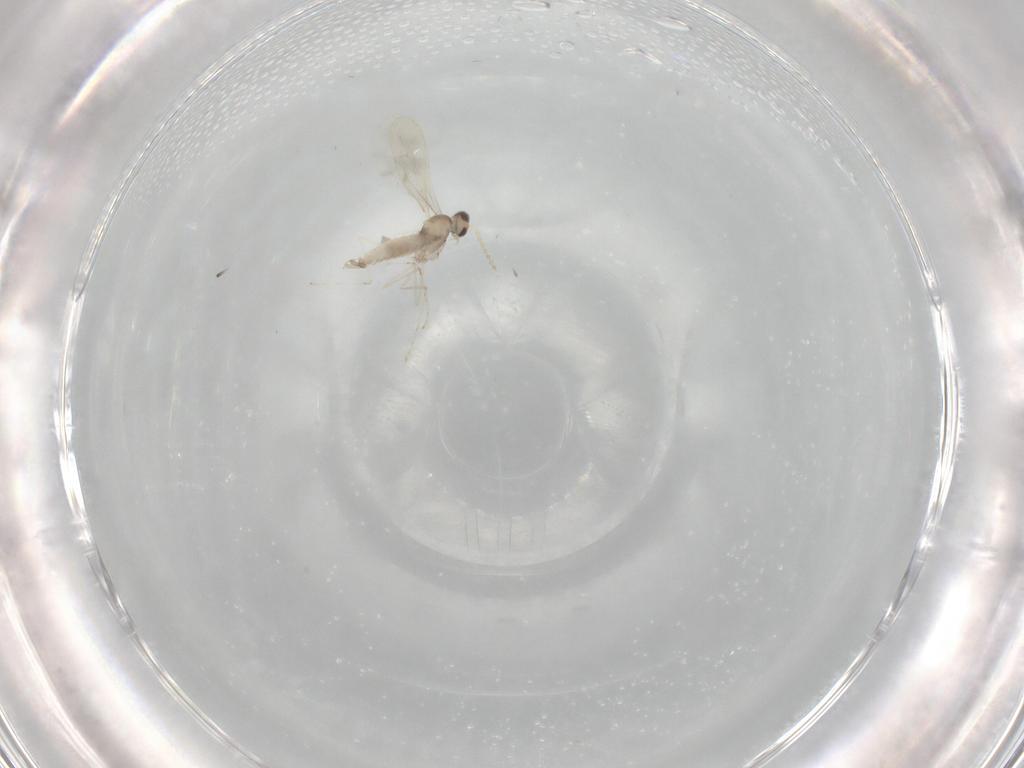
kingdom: Animalia
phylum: Arthropoda
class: Insecta
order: Diptera
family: Cecidomyiidae
